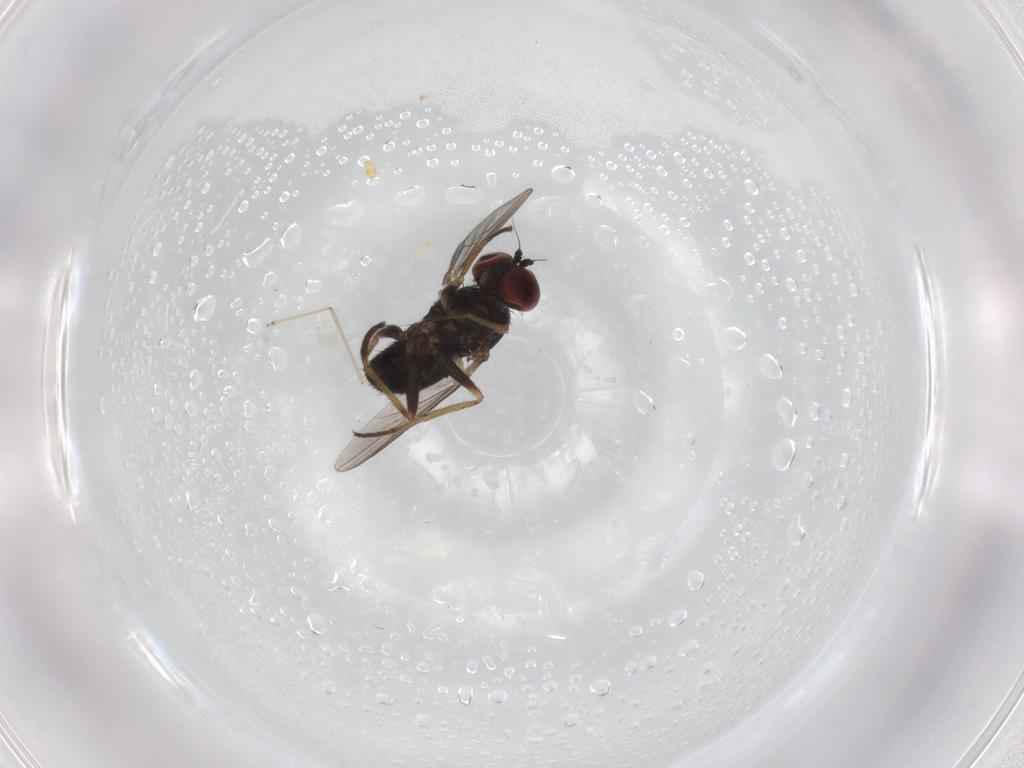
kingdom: Animalia
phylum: Arthropoda
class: Insecta
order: Diptera
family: Dolichopodidae
